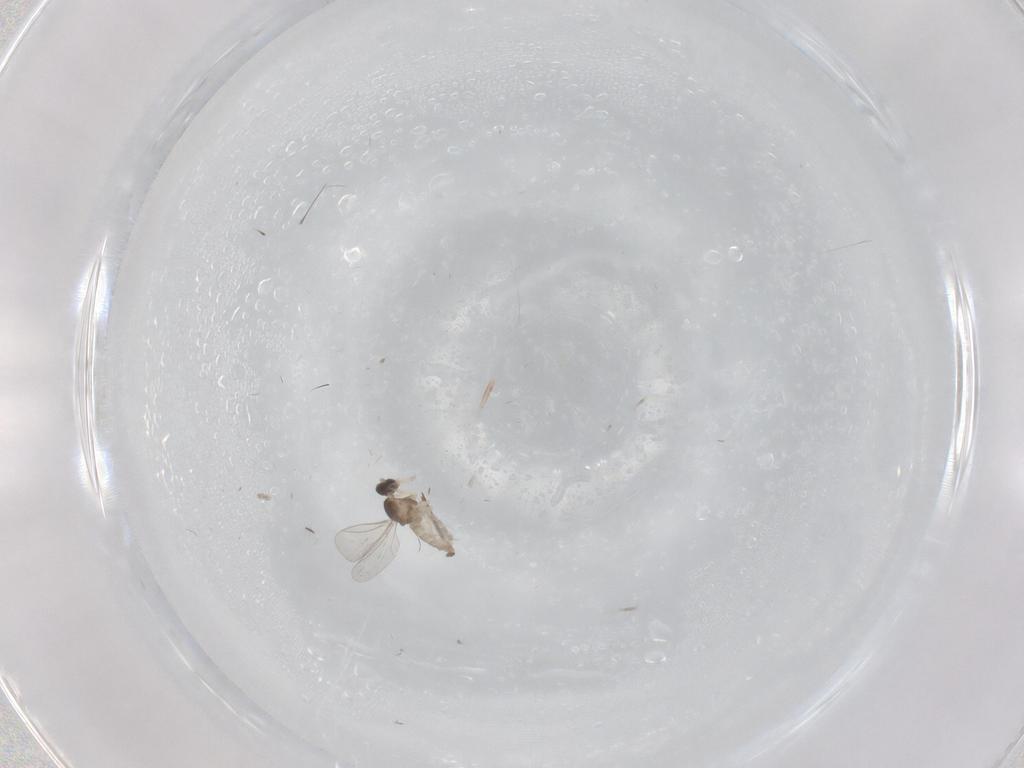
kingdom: Animalia
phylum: Arthropoda
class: Insecta
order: Diptera
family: Cecidomyiidae
